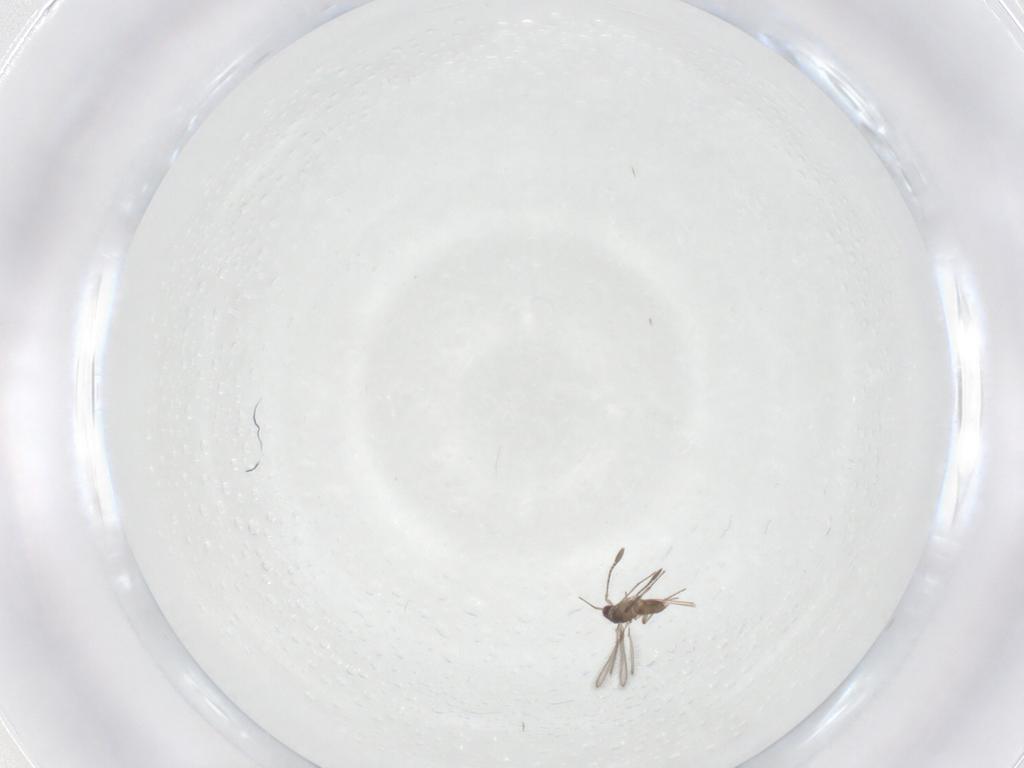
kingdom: Animalia
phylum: Arthropoda
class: Insecta
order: Hymenoptera
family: Mymaridae
